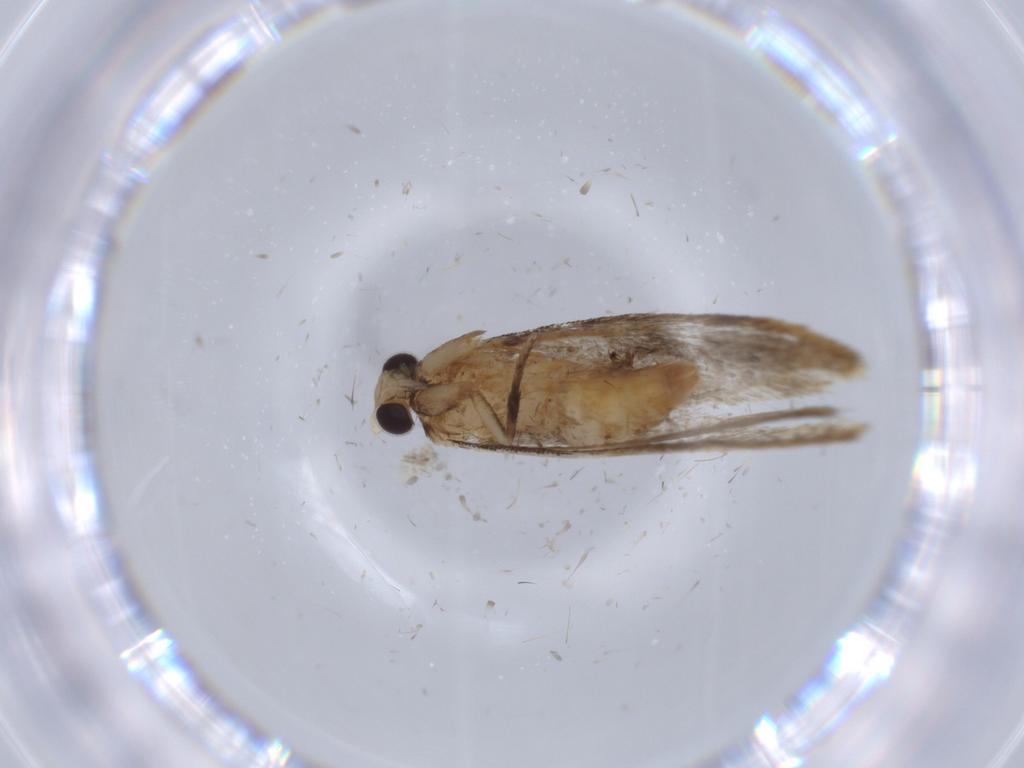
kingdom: Animalia
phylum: Arthropoda
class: Insecta
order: Lepidoptera
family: Tineidae
